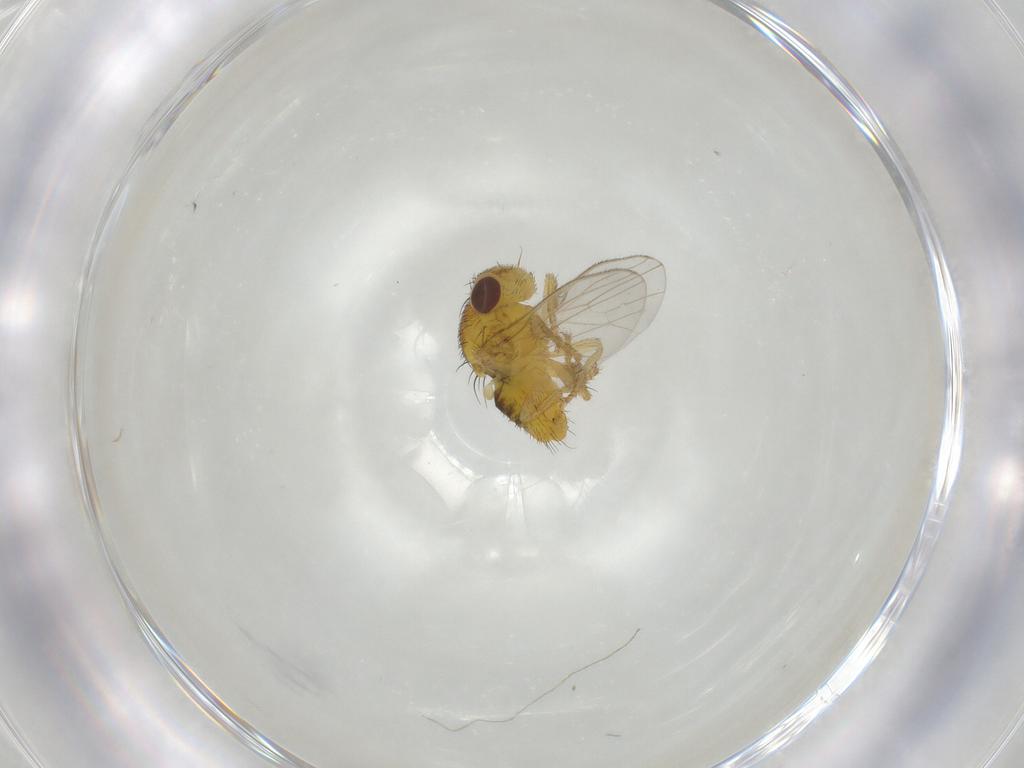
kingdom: Animalia
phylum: Arthropoda
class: Insecta
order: Diptera
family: Fergusoninidae
